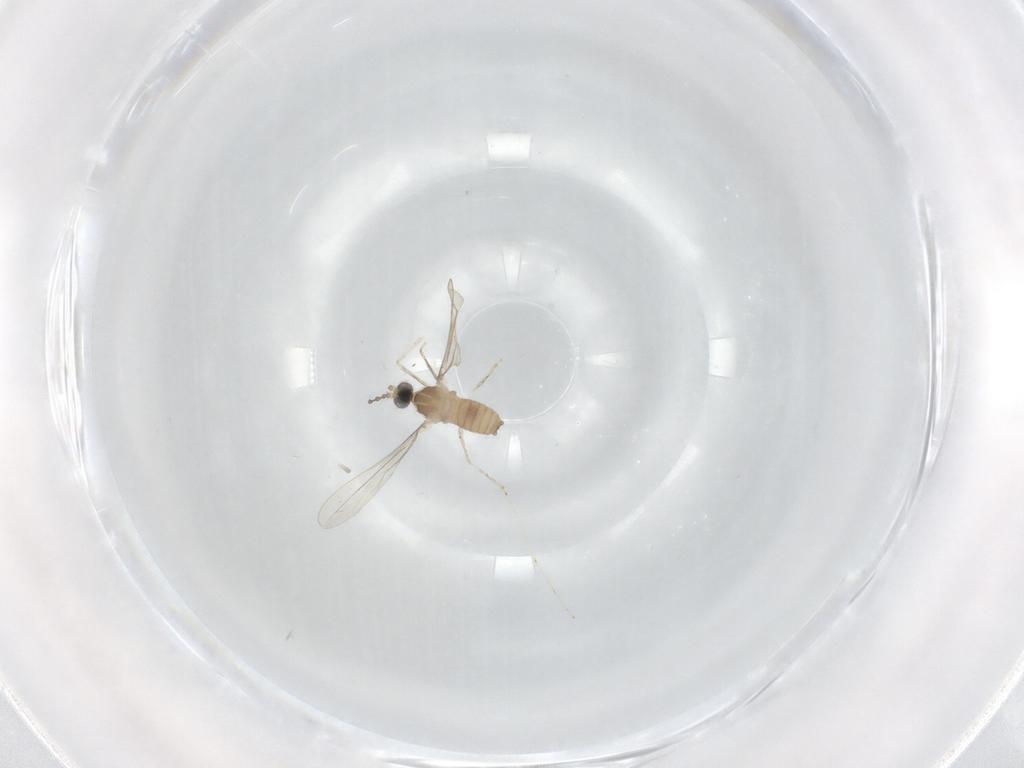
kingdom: Animalia
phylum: Arthropoda
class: Insecta
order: Diptera
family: Cecidomyiidae
